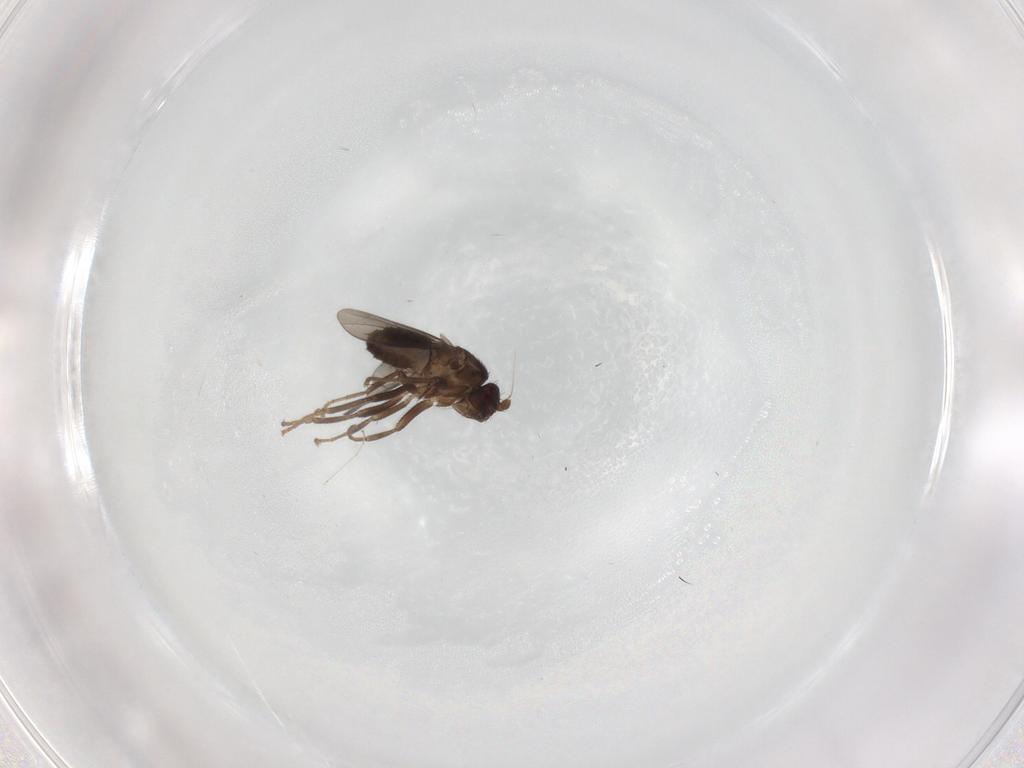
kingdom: Animalia
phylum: Arthropoda
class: Insecta
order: Diptera
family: Sphaeroceridae
